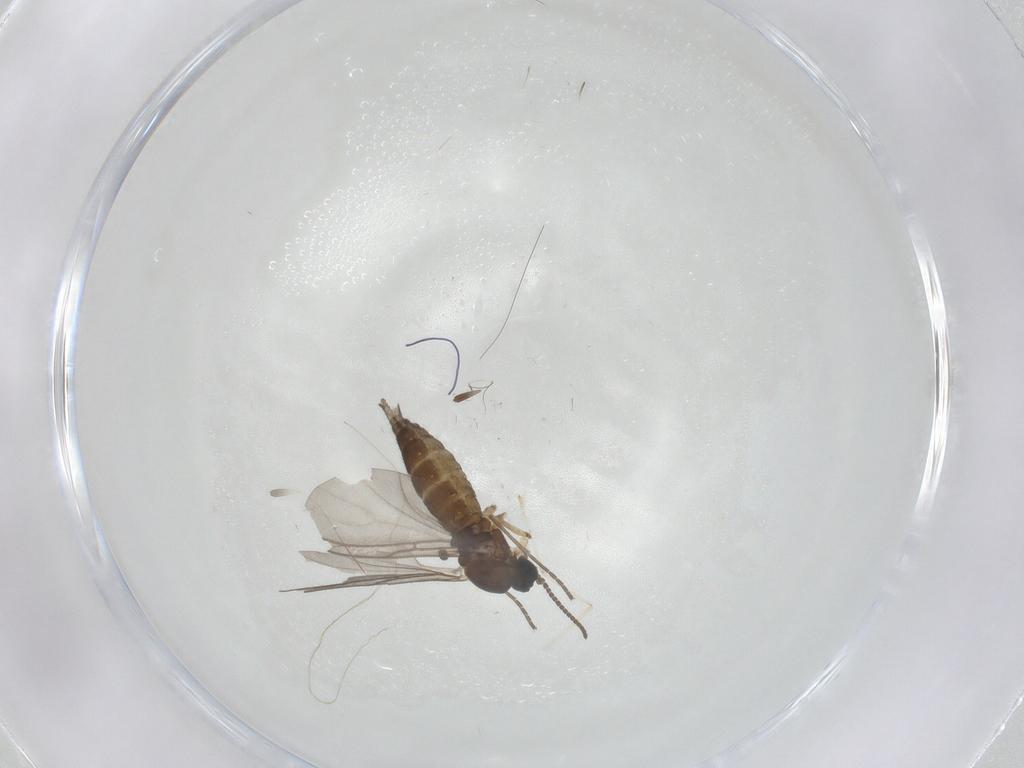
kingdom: Animalia
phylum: Arthropoda
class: Insecta
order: Diptera
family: Sciaridae
